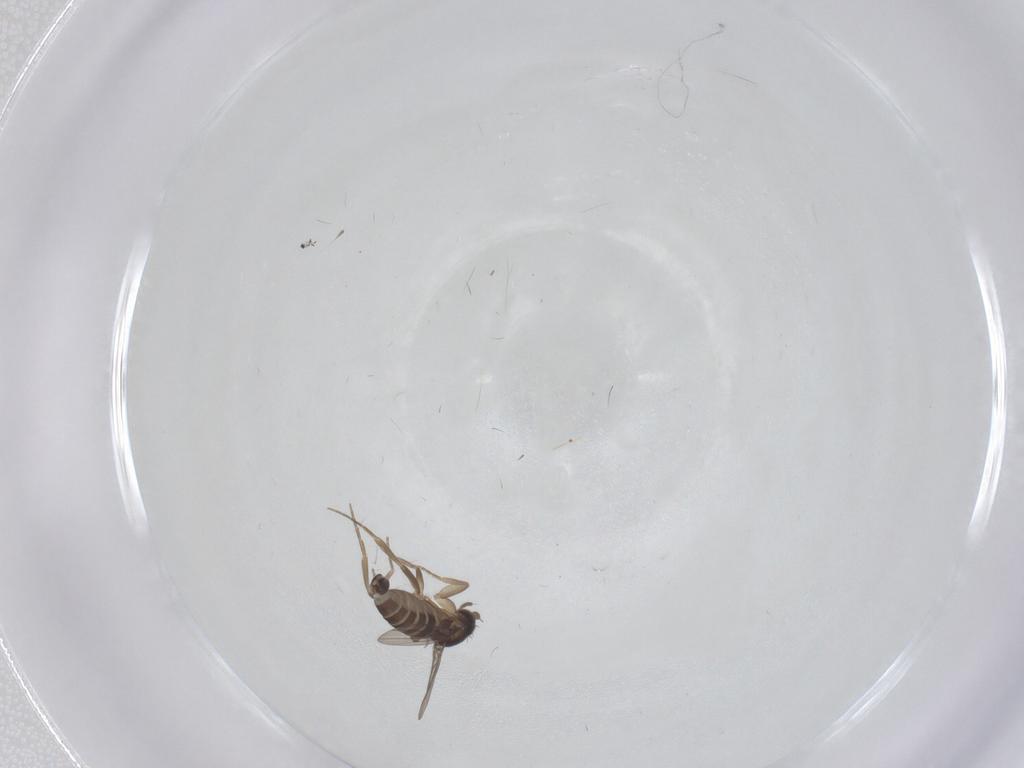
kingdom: Animalia
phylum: Arthropoda
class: Insecta
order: Diptera
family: Phoridae
